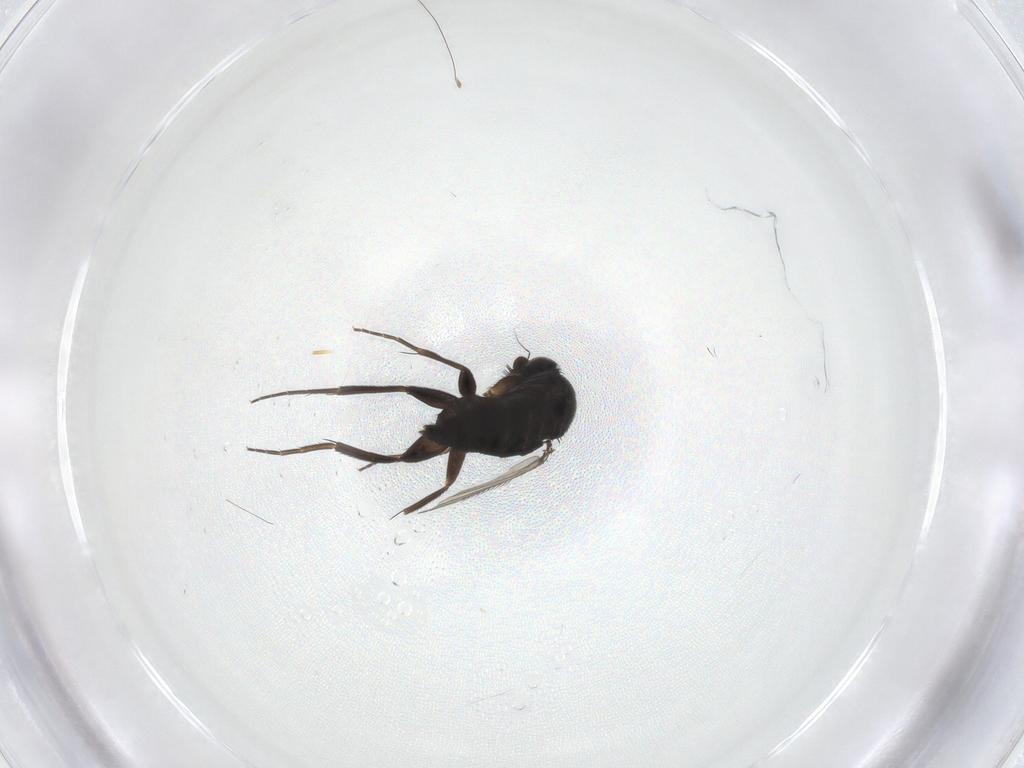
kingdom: Animalia
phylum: Arthropoda
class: Insecta
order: Diptera
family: Phoridae
